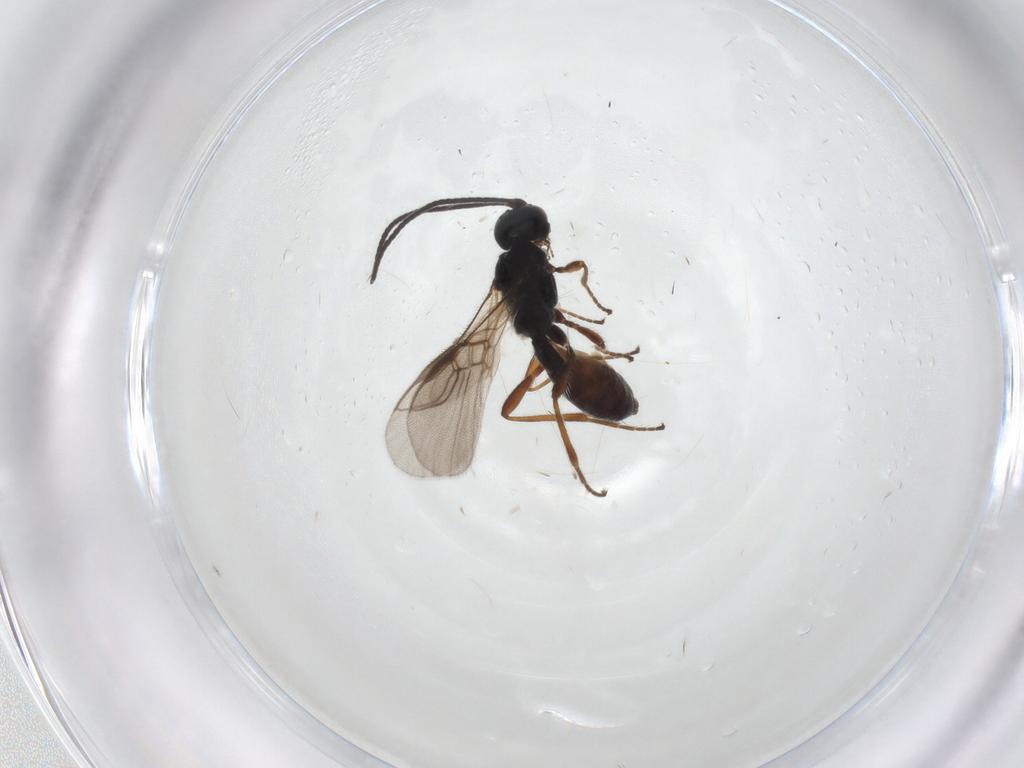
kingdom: Animalia
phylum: Arthropoda
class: Insecta
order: Hymenoptera
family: Braconidae
